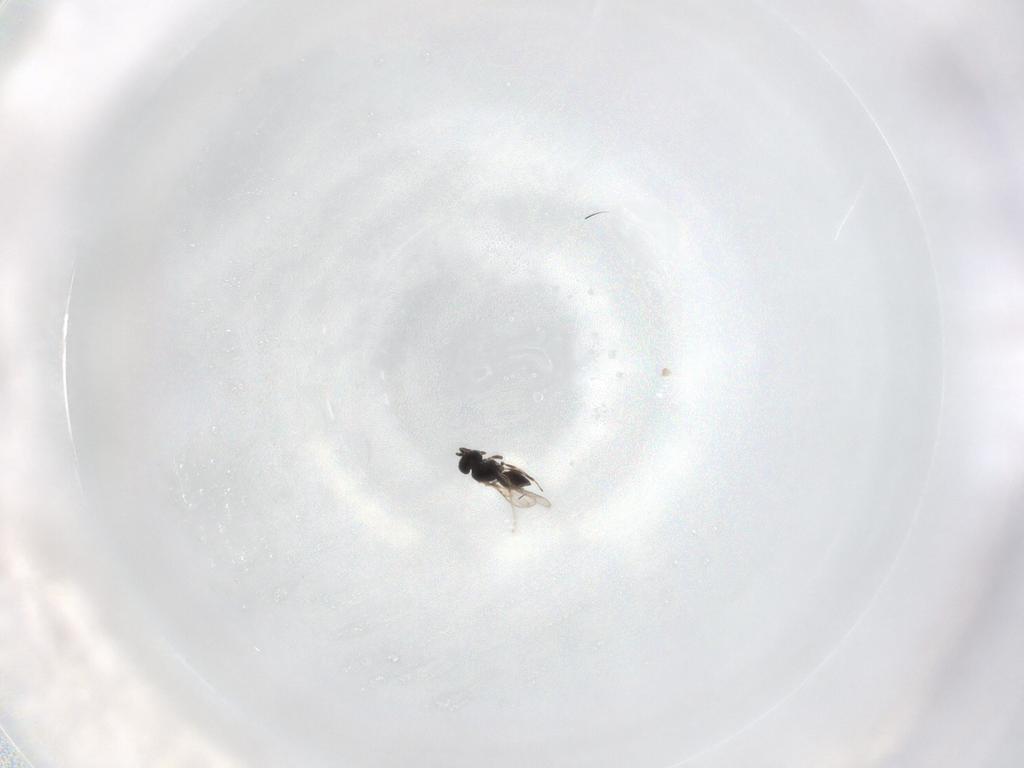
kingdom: Animalia
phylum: Arthropoda
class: Insecta
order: Hymenoptera
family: Scelionidae
